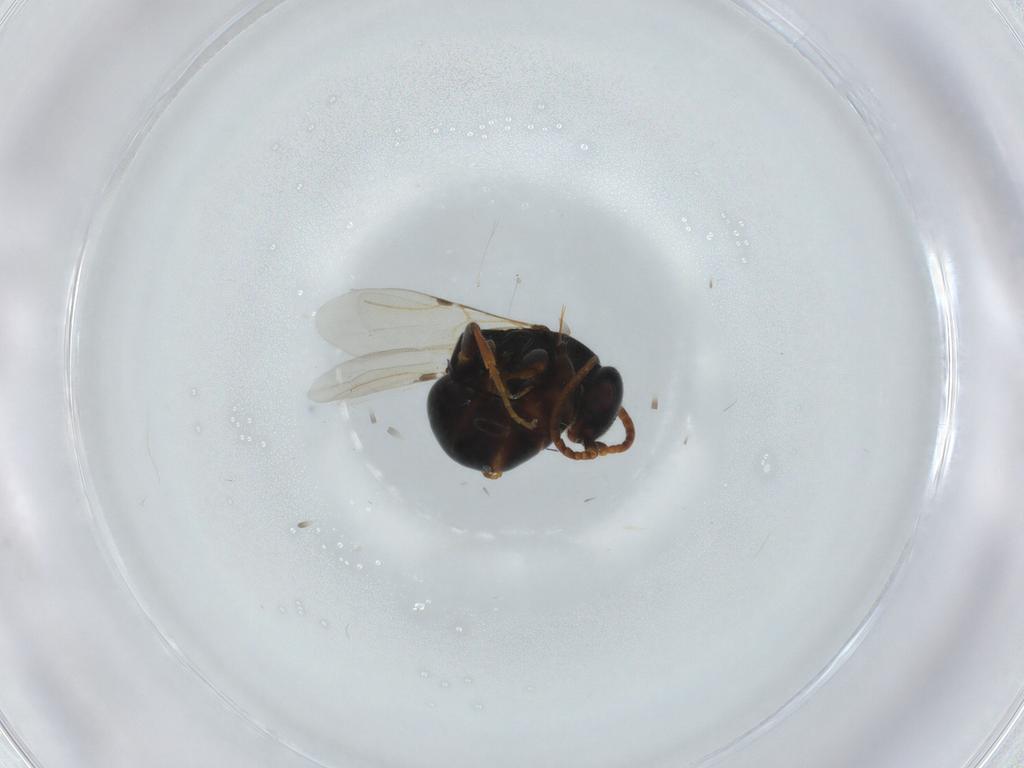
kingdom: Animalia
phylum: Arthropoda
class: Insecta
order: Hymenoptera
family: Bethylidae
